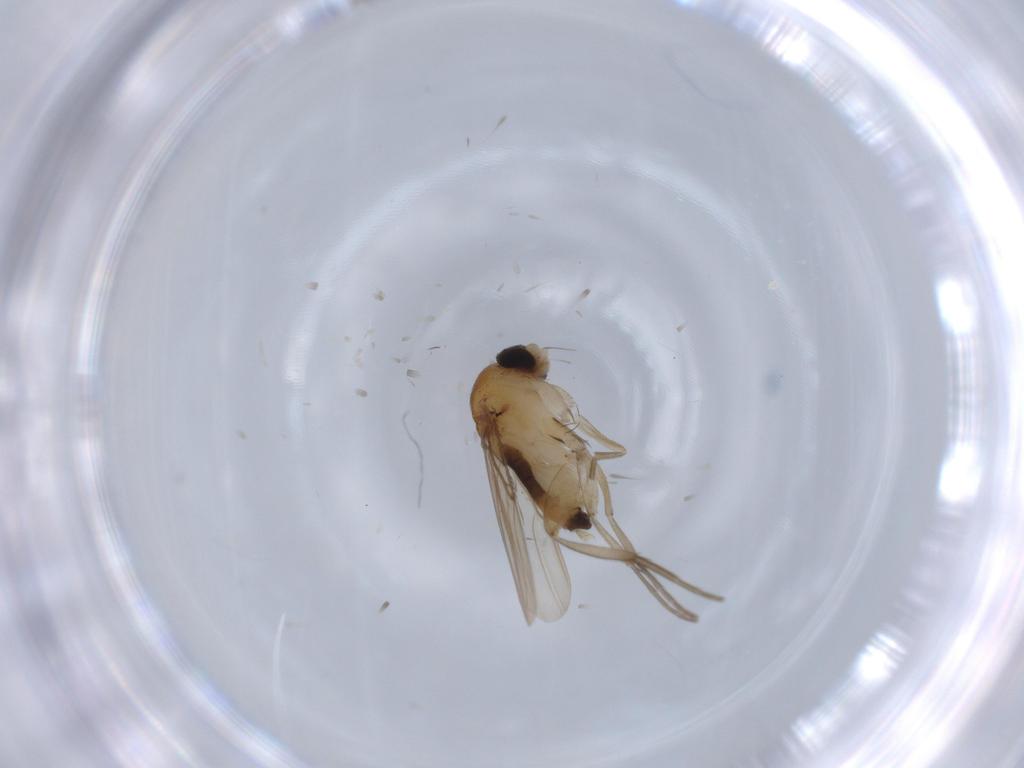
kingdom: Animalia
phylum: Arthropoda
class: Insecta
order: Diptera
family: Phoridae
